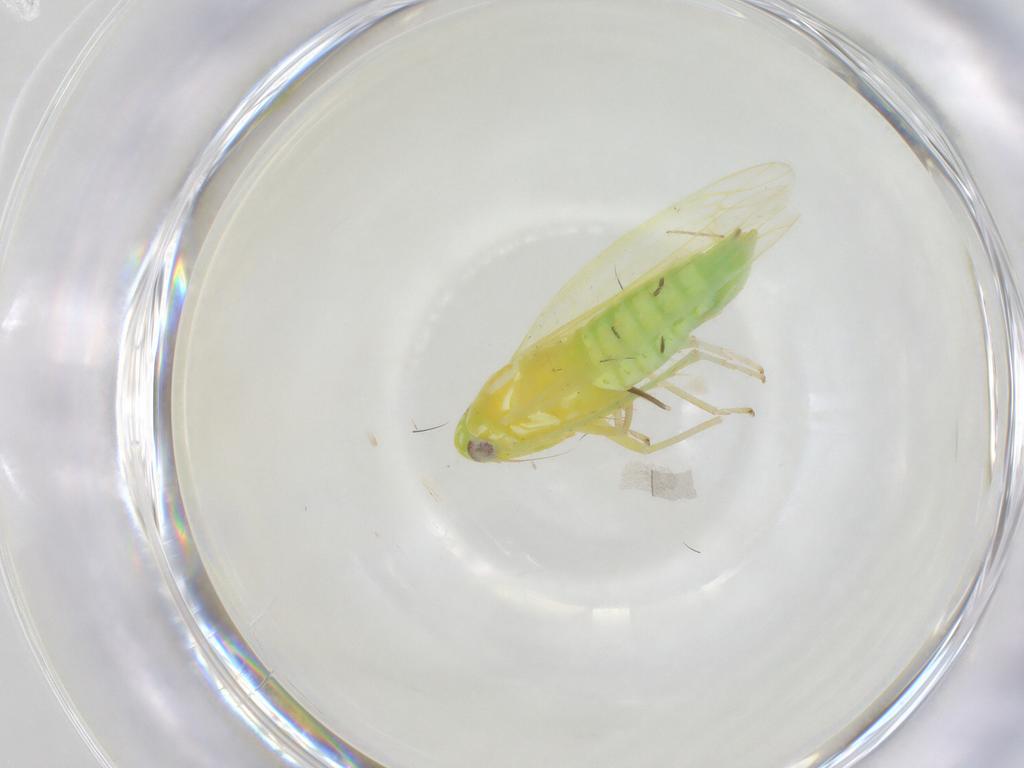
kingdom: Animalia
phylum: Arthropoda
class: Insecta
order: Hemiptera
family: Cicadellidae
